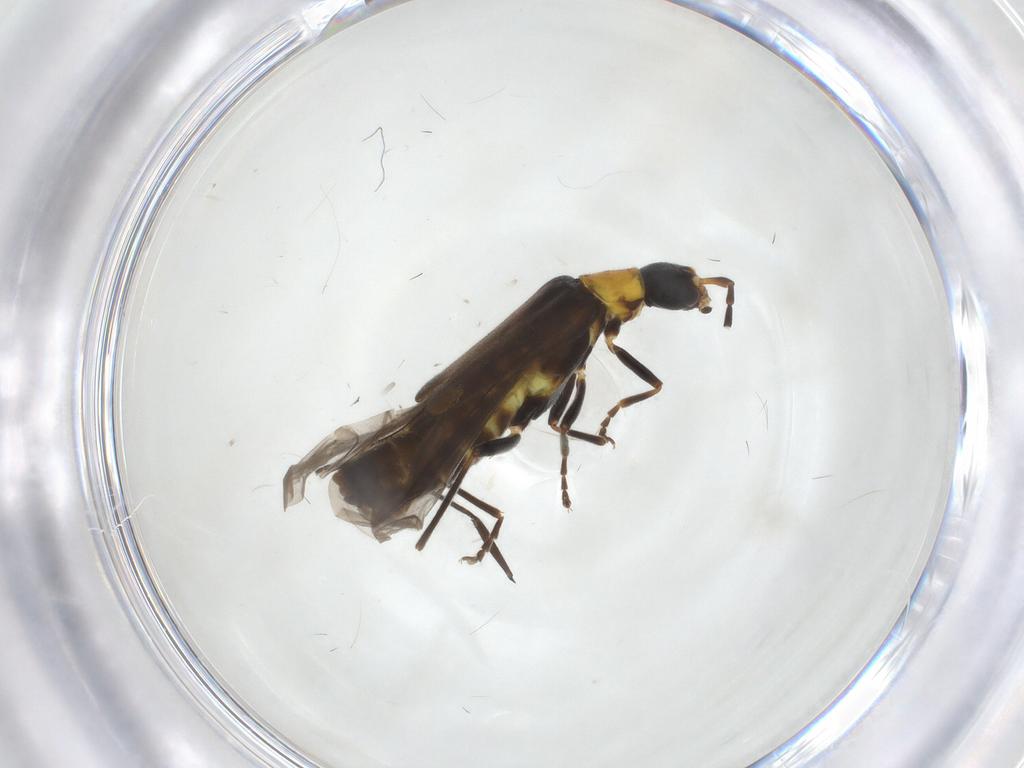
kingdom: Animalia
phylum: Arthropoda
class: Insecta
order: Coleoptera
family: Cantharidae
